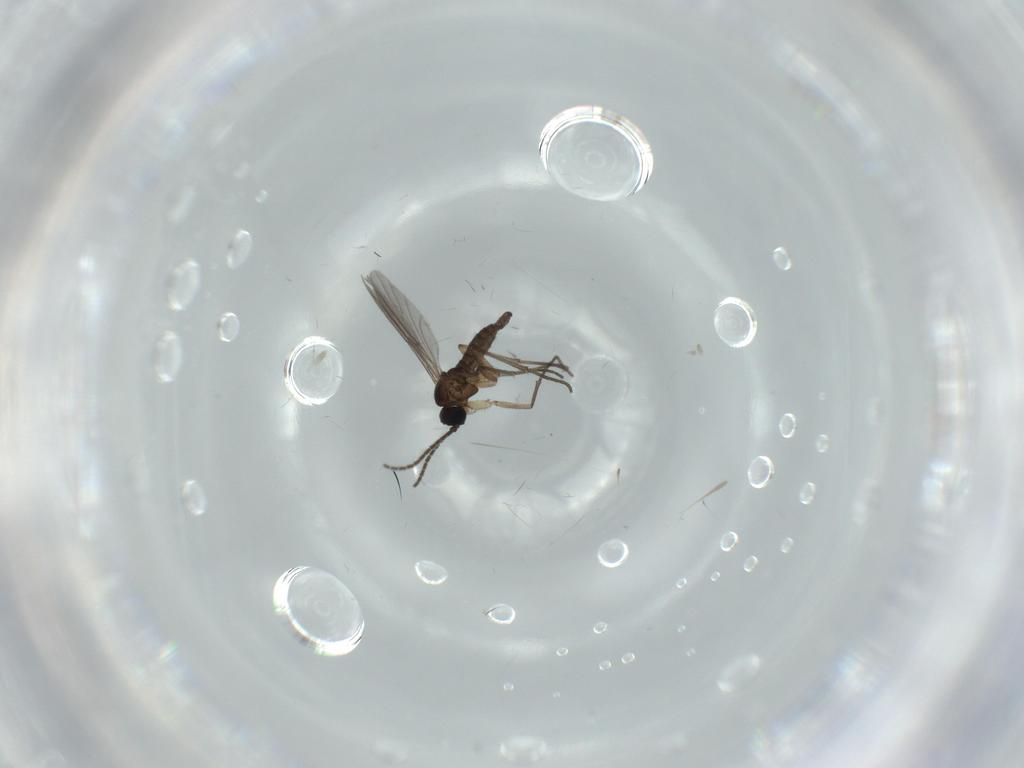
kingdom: Animalia
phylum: Arthropoda
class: Insecta
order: Diptera
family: Sciaridae
